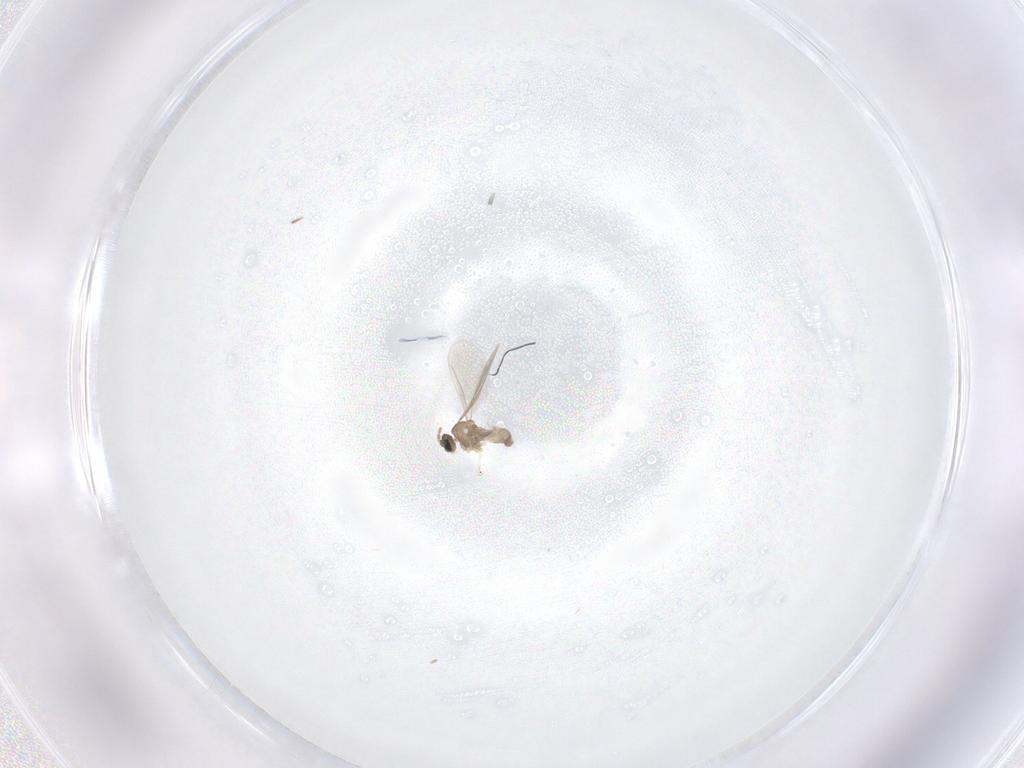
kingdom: Animalia
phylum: Arthropoda
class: Insecta
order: Diptera
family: Cecidomyiidae
